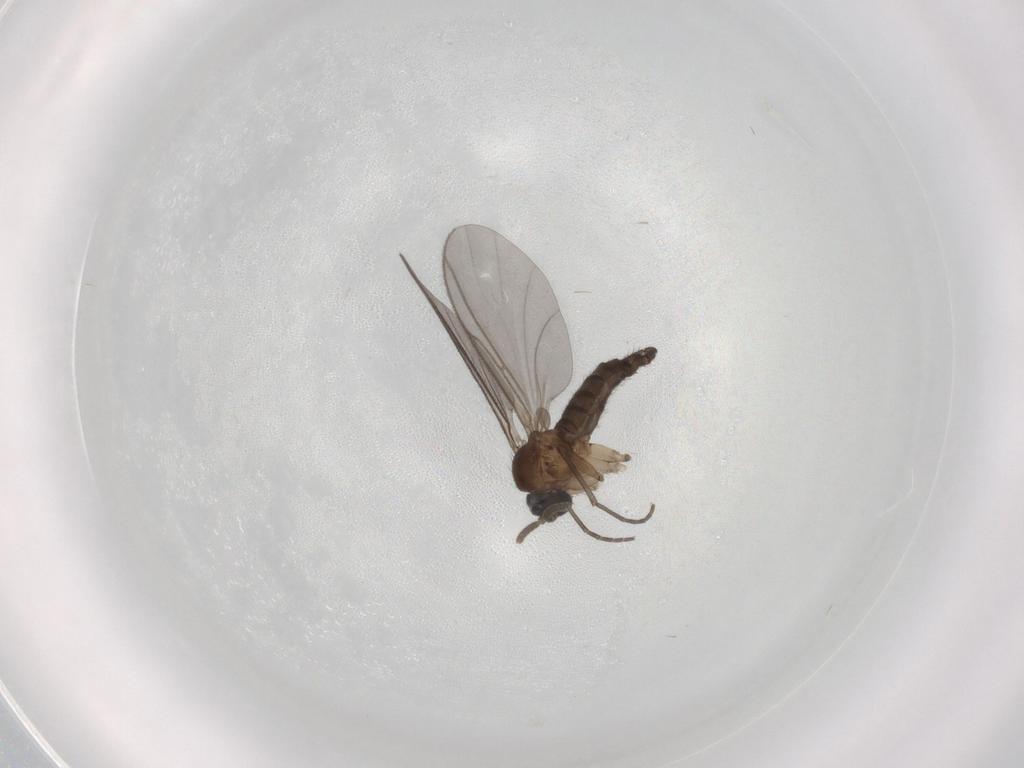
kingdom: Animalia
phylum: Arthropoda
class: Insecta
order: Diptera
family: Sciaridae
